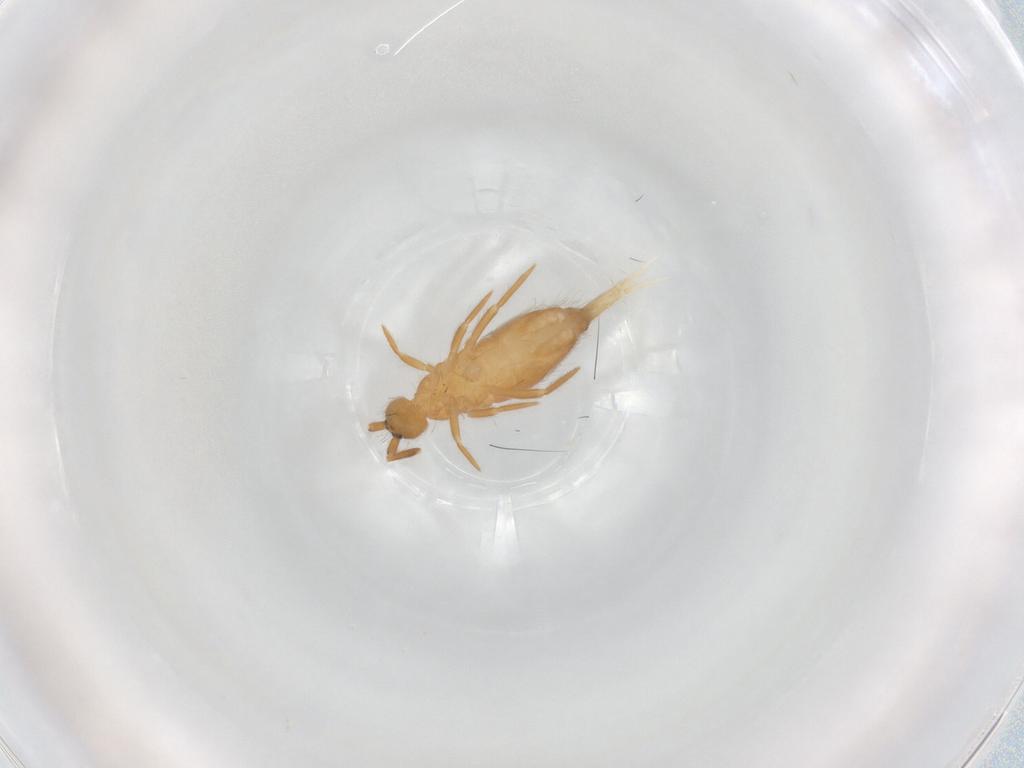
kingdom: Animalia
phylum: Arthropoda
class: Collembola
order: Entomobryomorpha
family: Entomobryidae
